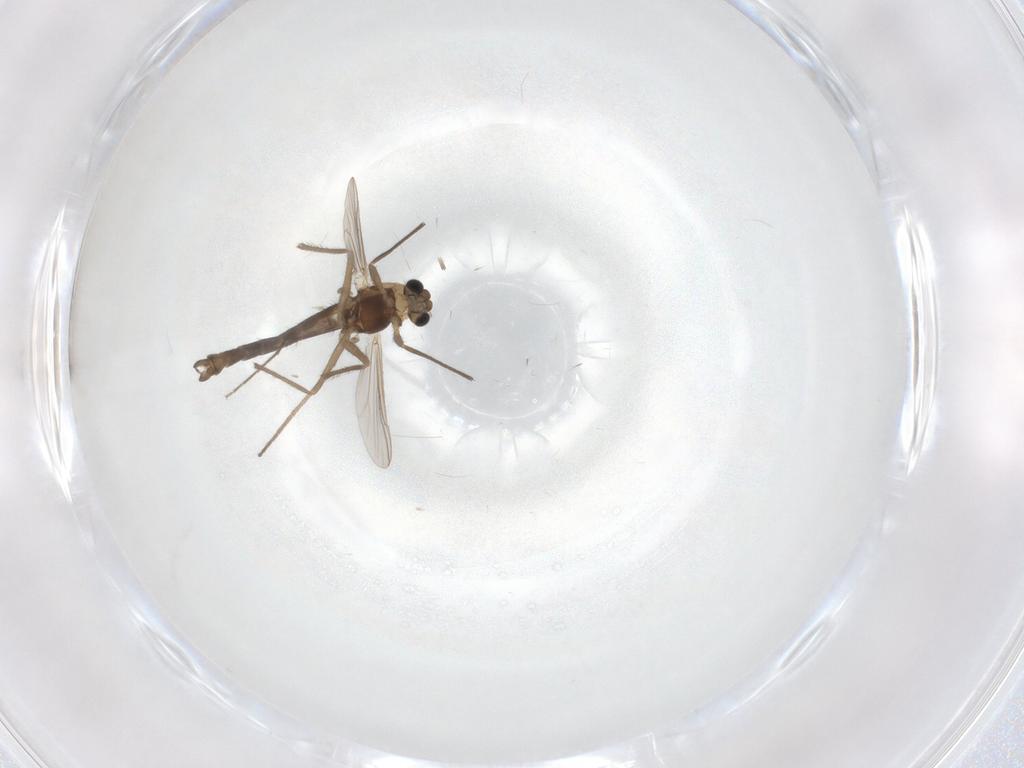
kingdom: Animalia
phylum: Arthropoda
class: Insecta
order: Diptera
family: Chironomidae
